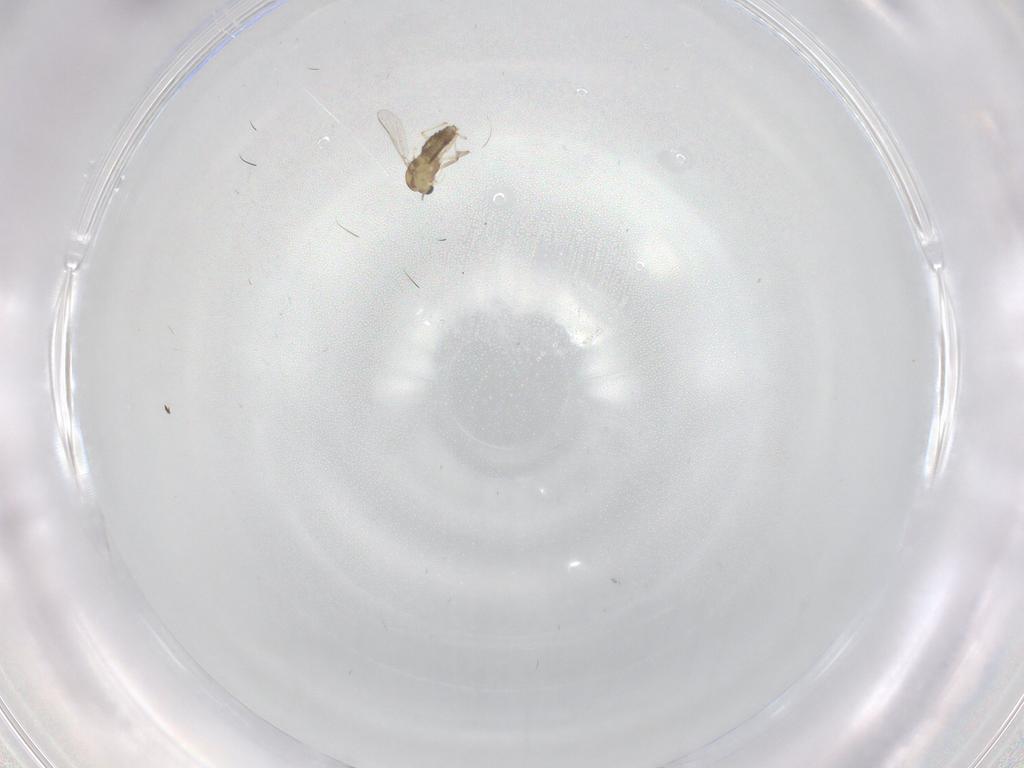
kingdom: Animalia
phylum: Arthropoda
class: Insecta
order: Diptera
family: Chironomidae
